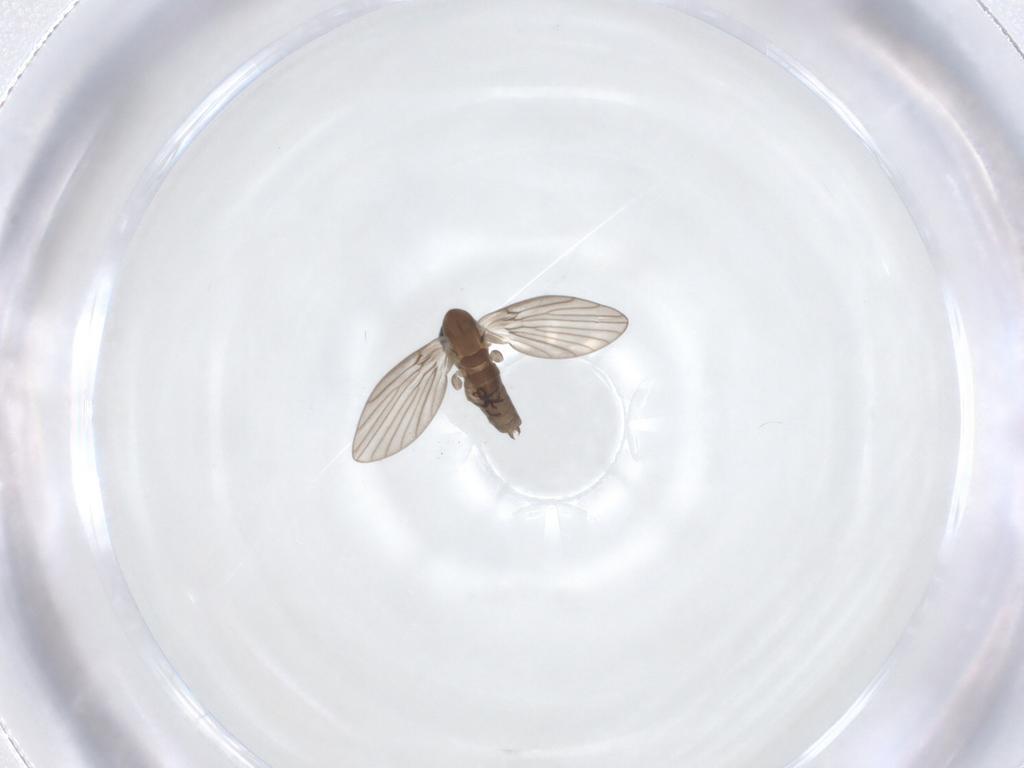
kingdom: Animalia
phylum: Arthropoda
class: Insecta
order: Diptera
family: Psychodidae
